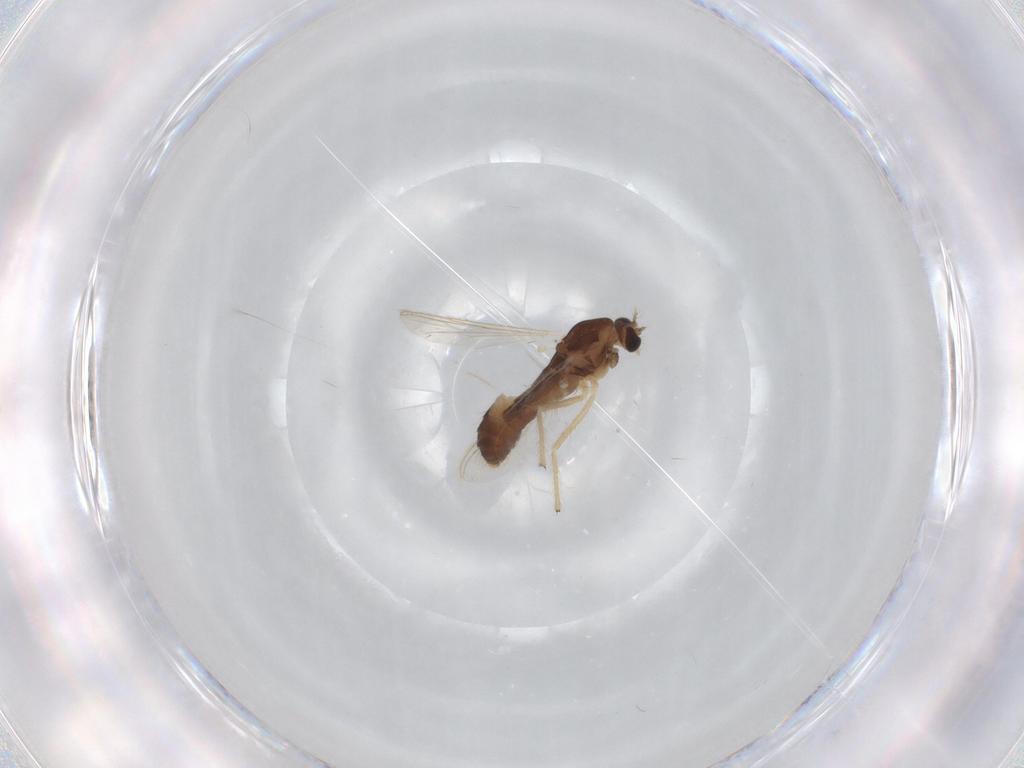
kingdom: Animalia
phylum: Arthropoda
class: Insecta
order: Diptera
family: Chironomidae
